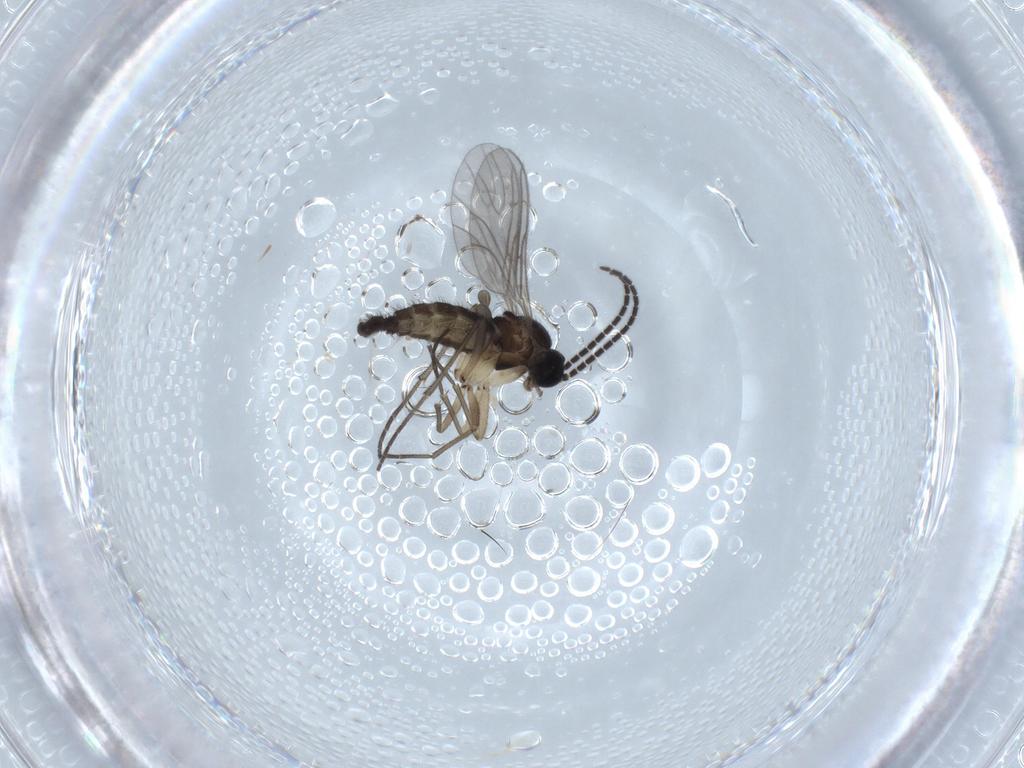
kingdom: Animalia
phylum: Arthropoda
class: Insecta
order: Diptera
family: Sciaridae
